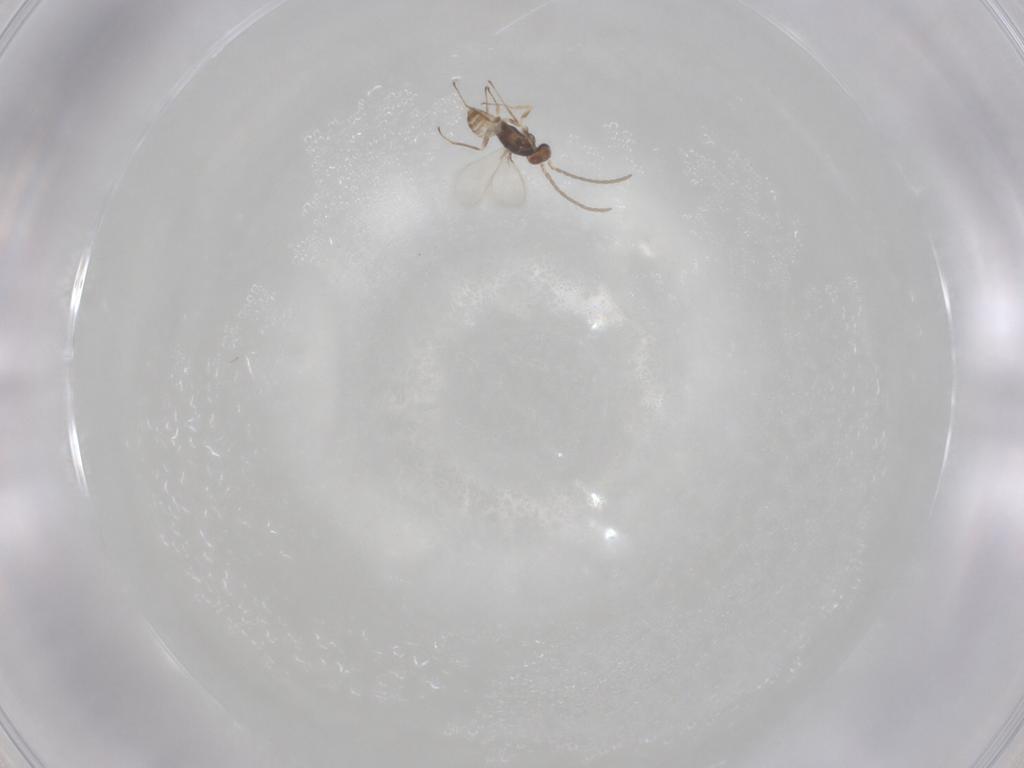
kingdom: Animalia
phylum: Arthropoda
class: Insecta
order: Hymenoptera
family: Mymaridae
